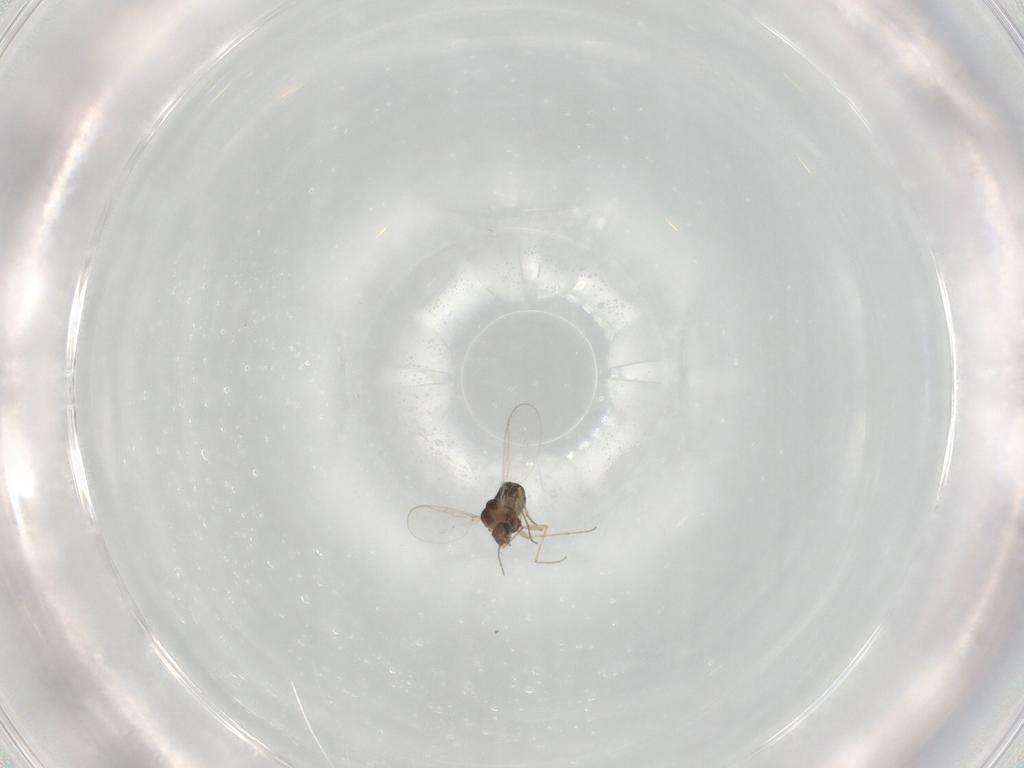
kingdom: Animalia
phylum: Arthropoda
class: Insecta
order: Diptera
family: Chironomidae
